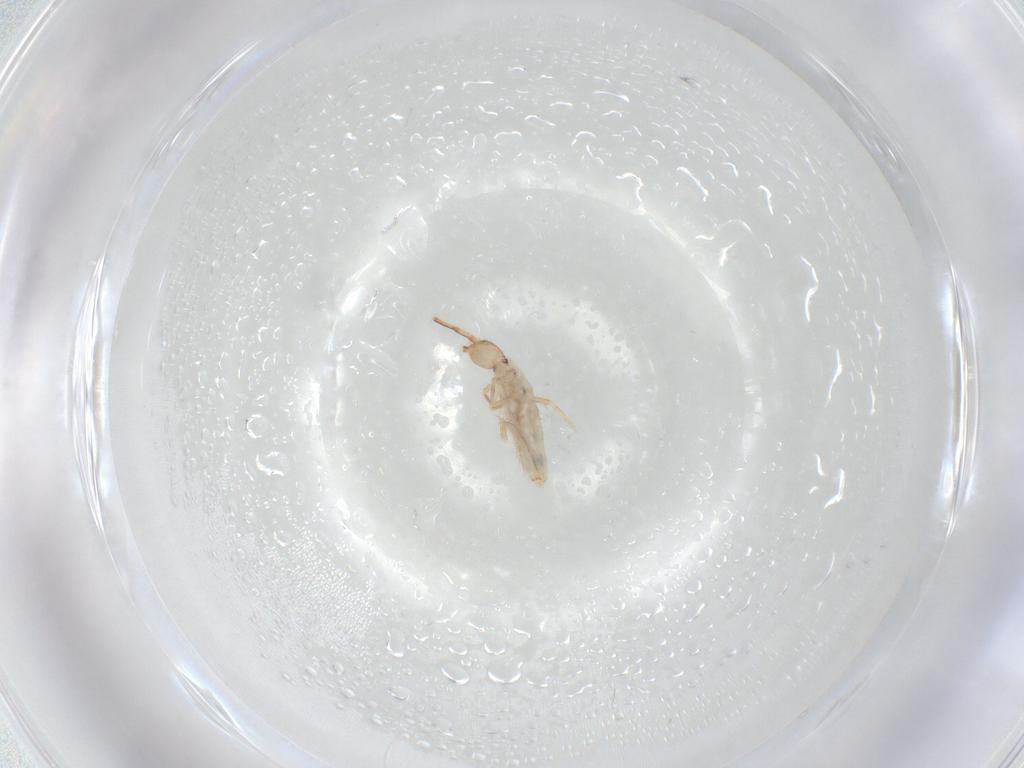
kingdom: Animalia
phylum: Arthropoda
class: Collembola
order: Entomobryomorpha
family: Entomobryidae
